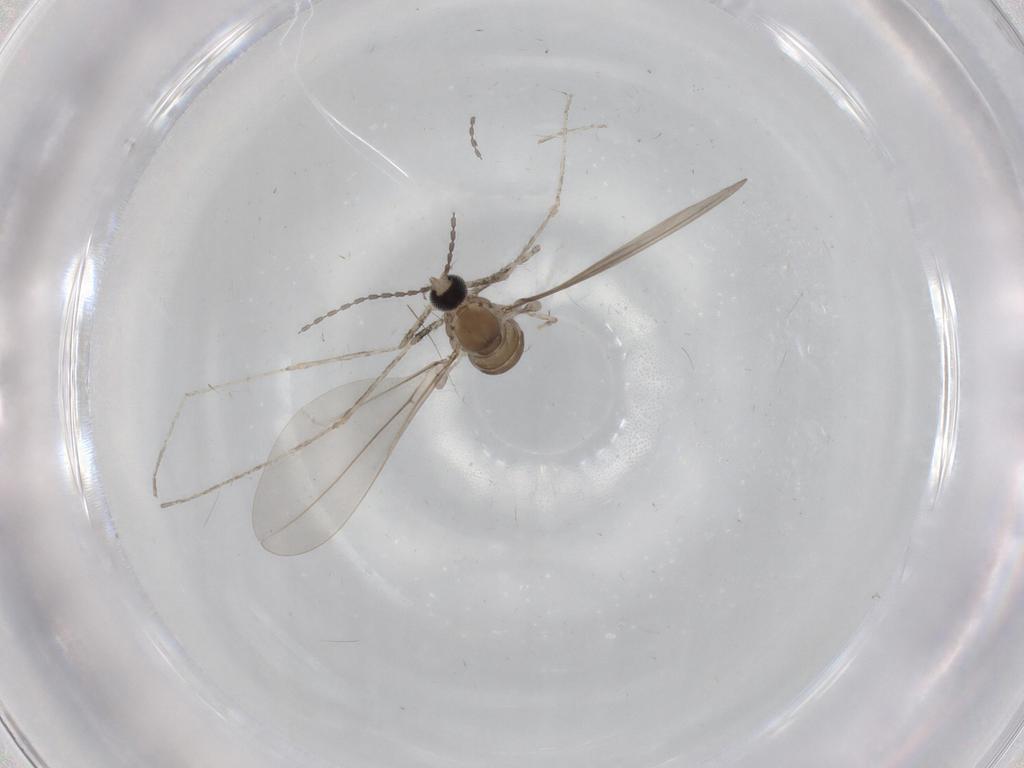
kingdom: Animalia
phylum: Arthropoda
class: Insecta
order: Diptera
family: Cecidomyiidae
